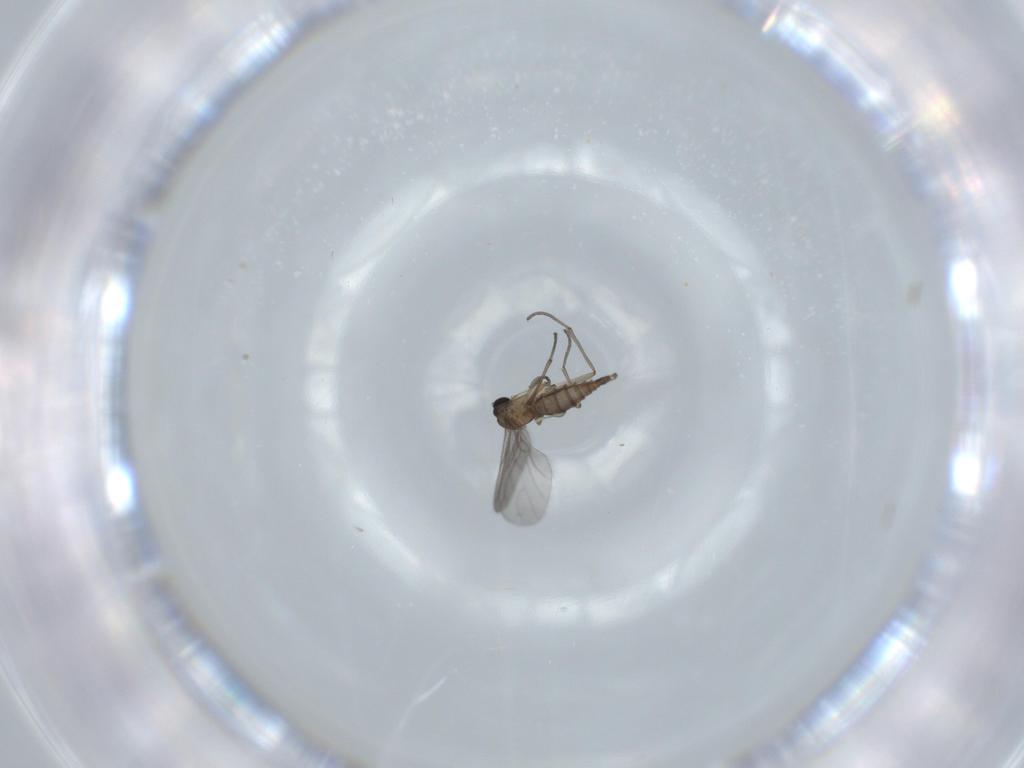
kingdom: Animalia
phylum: Arthropoda
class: Insecta
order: Diptera
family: Sciaridae
